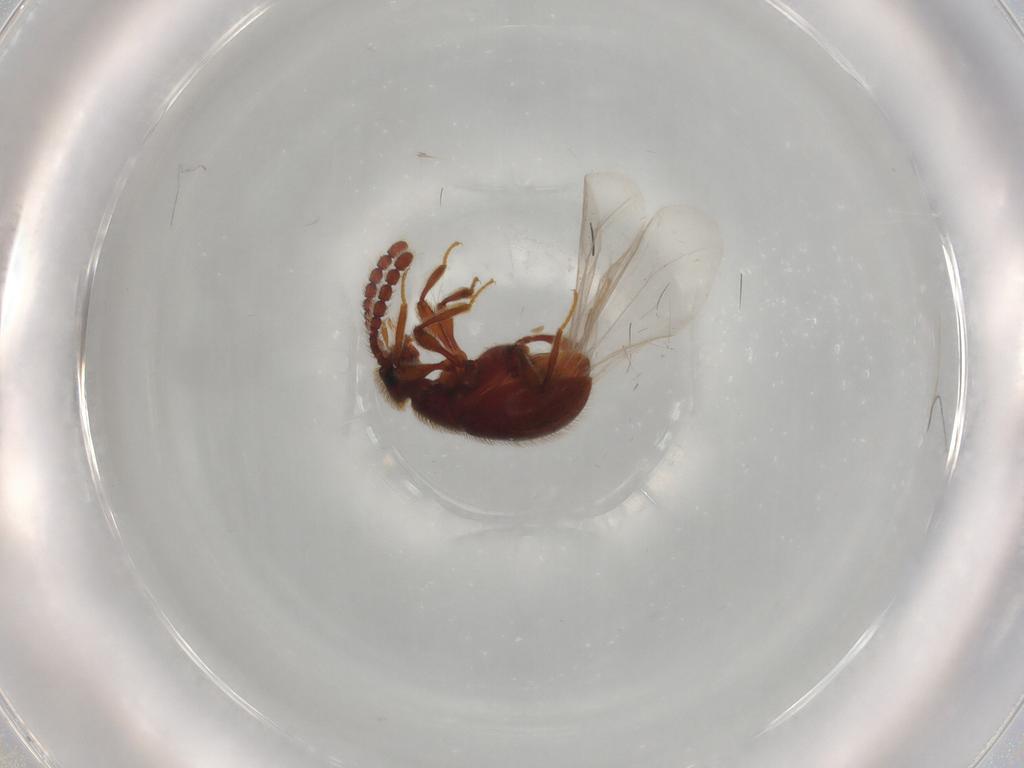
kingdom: Animalia
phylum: Arthropoda
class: Insecta
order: Coleoptera
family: Staphylinidae
